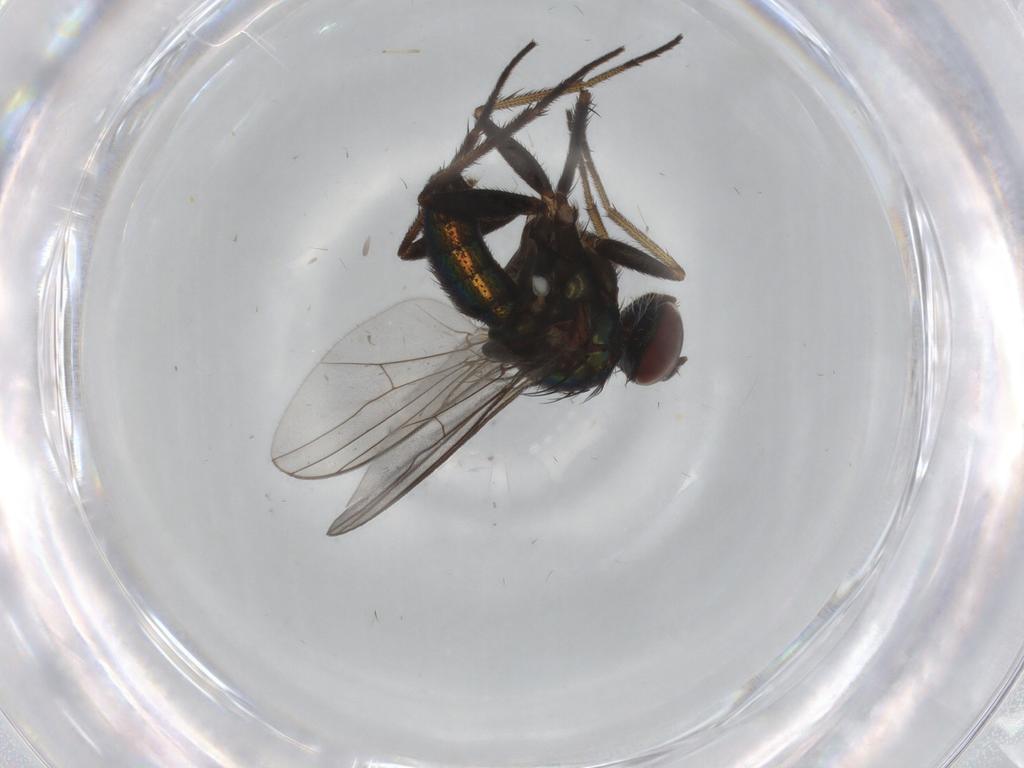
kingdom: Animalia
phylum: Arthropoda
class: Insecta
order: Diptera
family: Dolichopodidae
